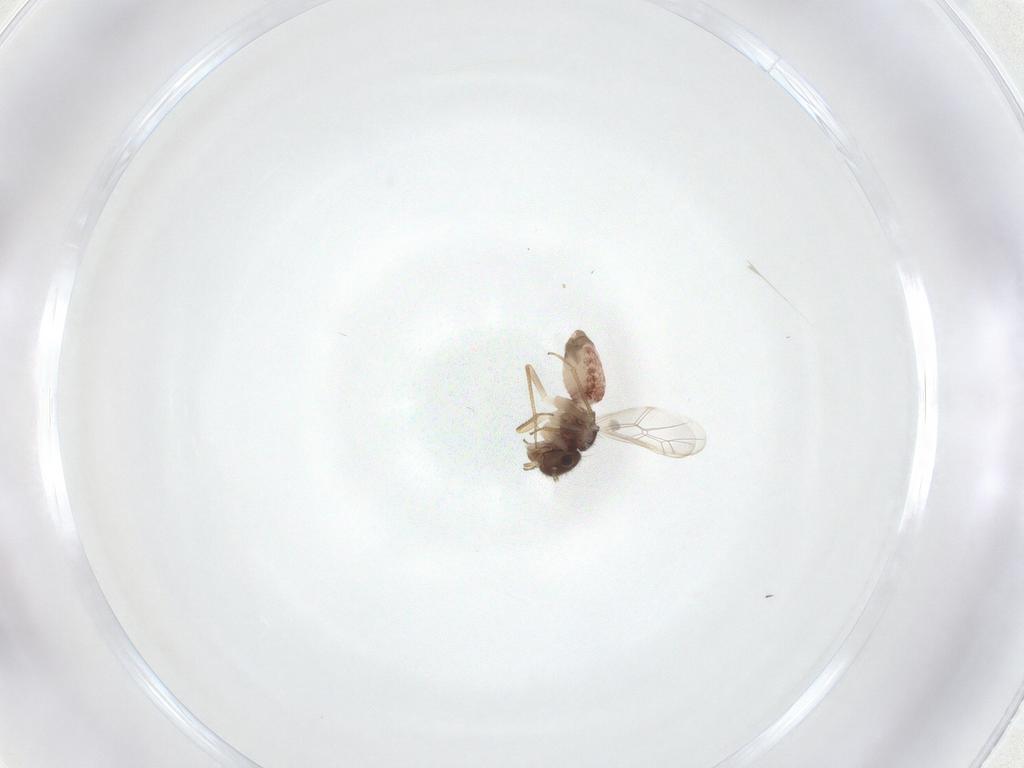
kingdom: Animalia
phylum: Arthropoda
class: Insecta
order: Psocodea
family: Peripsocidae
